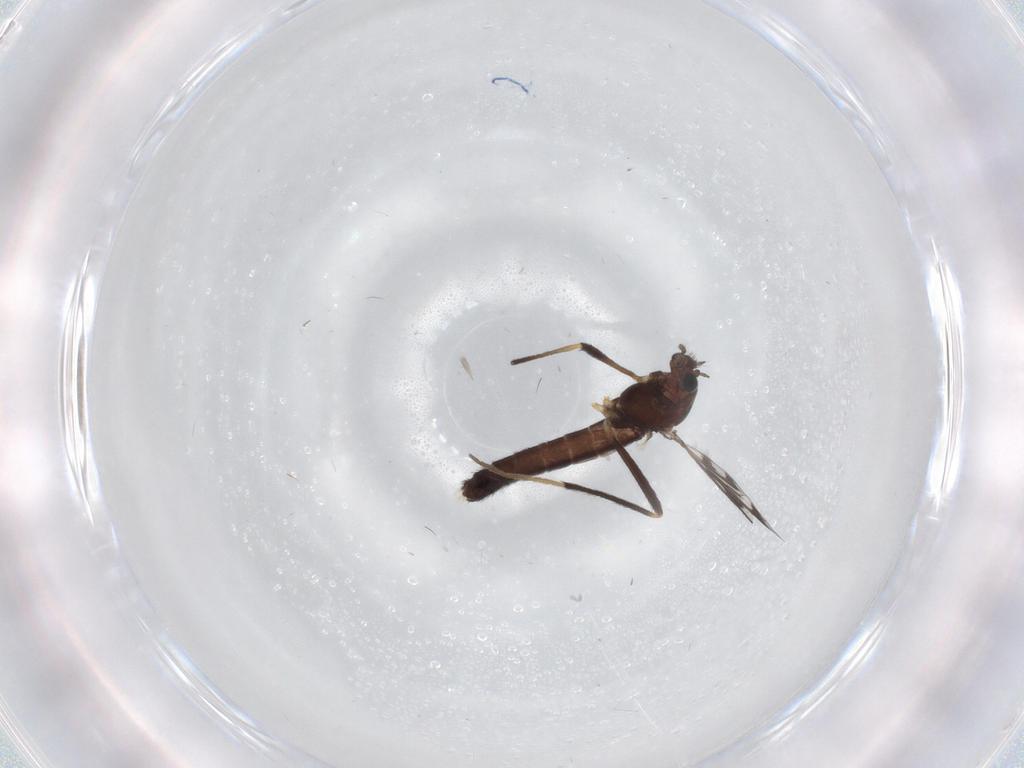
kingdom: Animalia
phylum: Arthropoda
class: Insecta
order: Diptera
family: Chironomidae
